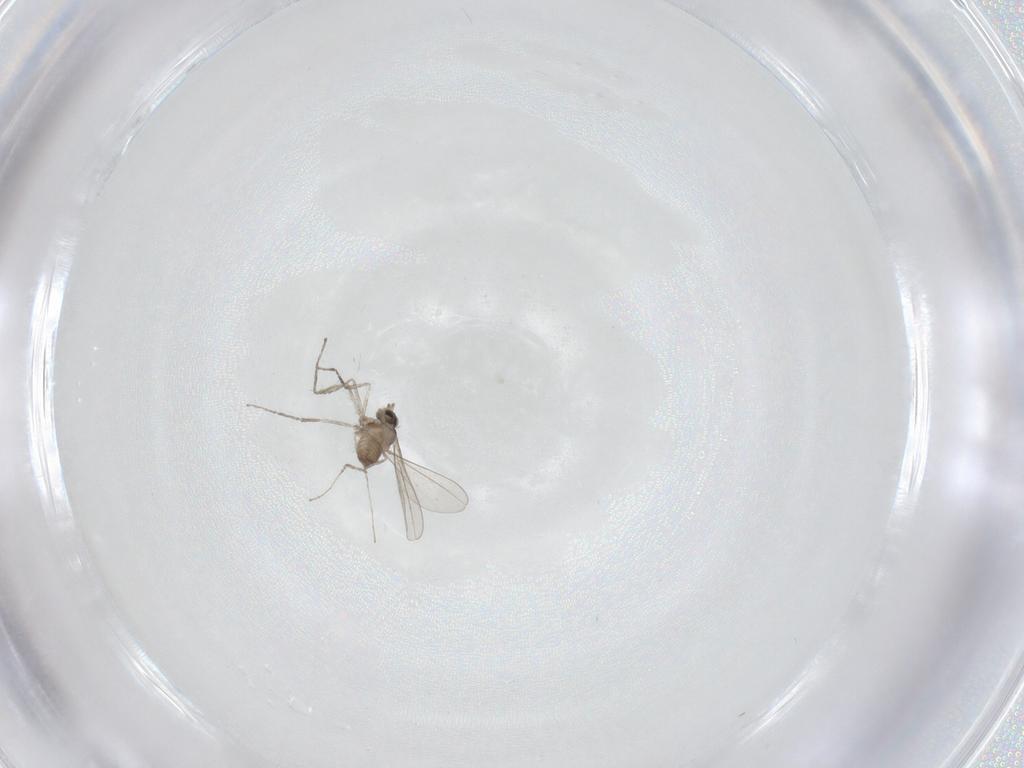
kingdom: Animalia
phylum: Arthropoda
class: Insecta
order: Diptera
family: Cecidomyiidae
